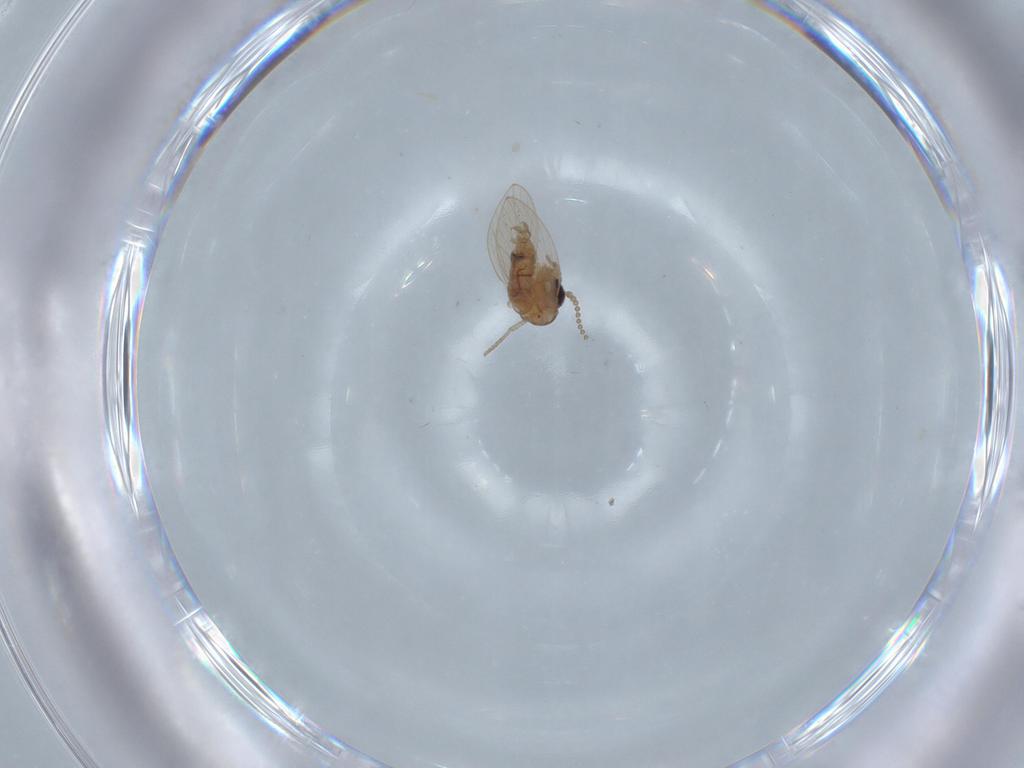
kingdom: Animalia
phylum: Arthropoda
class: Insecta
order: Diptera
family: Psychodidae
